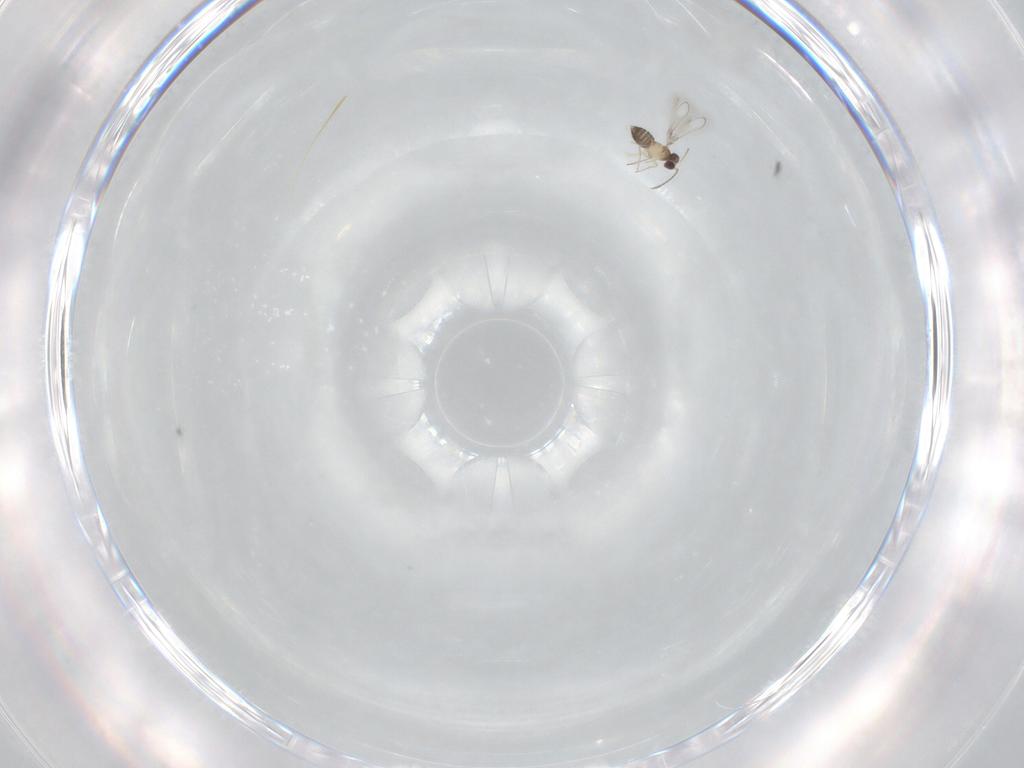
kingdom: Animalia
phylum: Arthropoda
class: Insecta
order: Hymenoptera
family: Mymaridae
